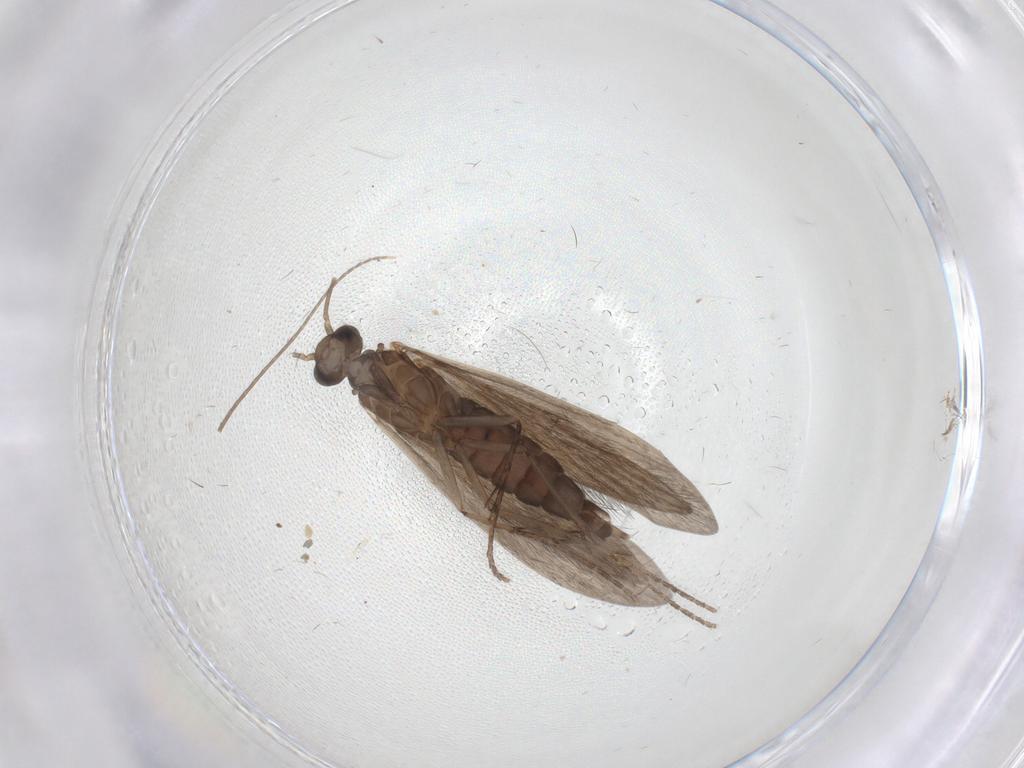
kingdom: Animalia
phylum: Arthropoda
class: Insecta
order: Trichoptera
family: Xiphocentronidae
